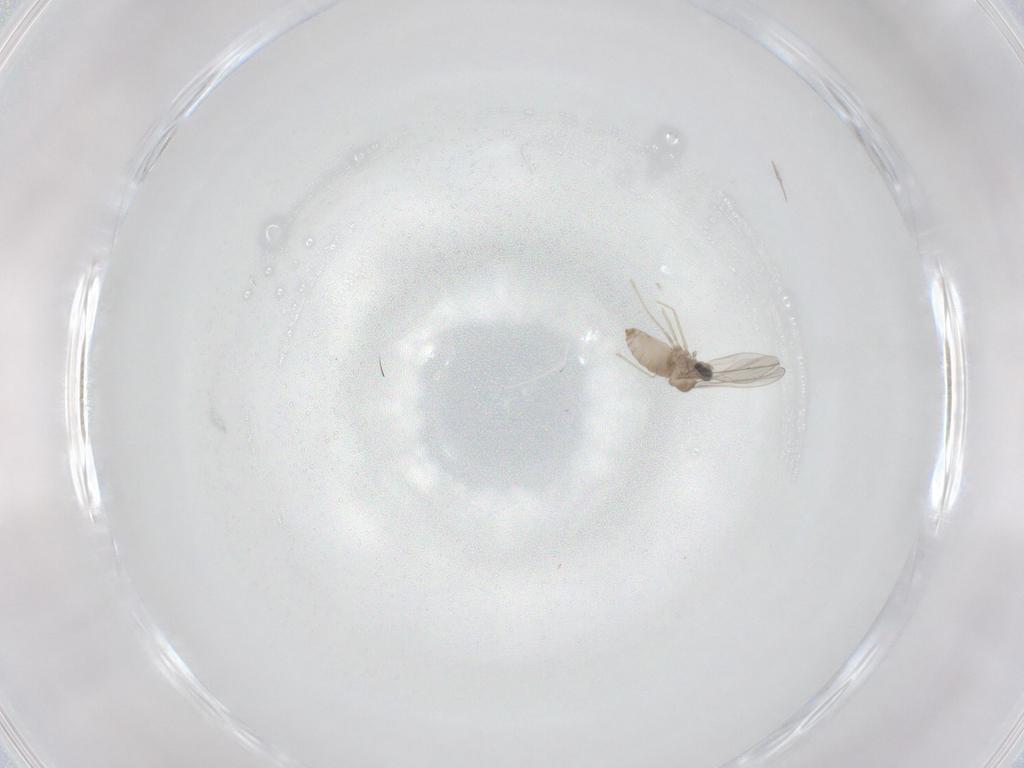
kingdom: Animalia
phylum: Arthropoda
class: Insecta
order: Diptera
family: Cecidomyiidae
